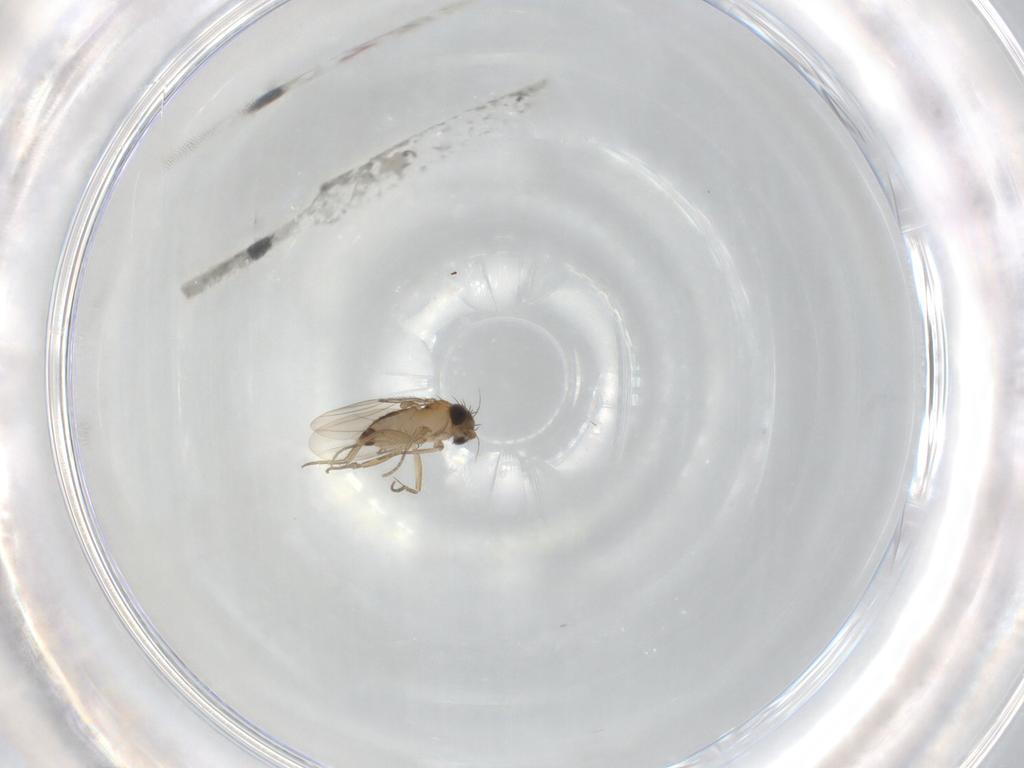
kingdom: Animalia
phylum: Arthropoda
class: Insecta
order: Diptera
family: Phoridae
